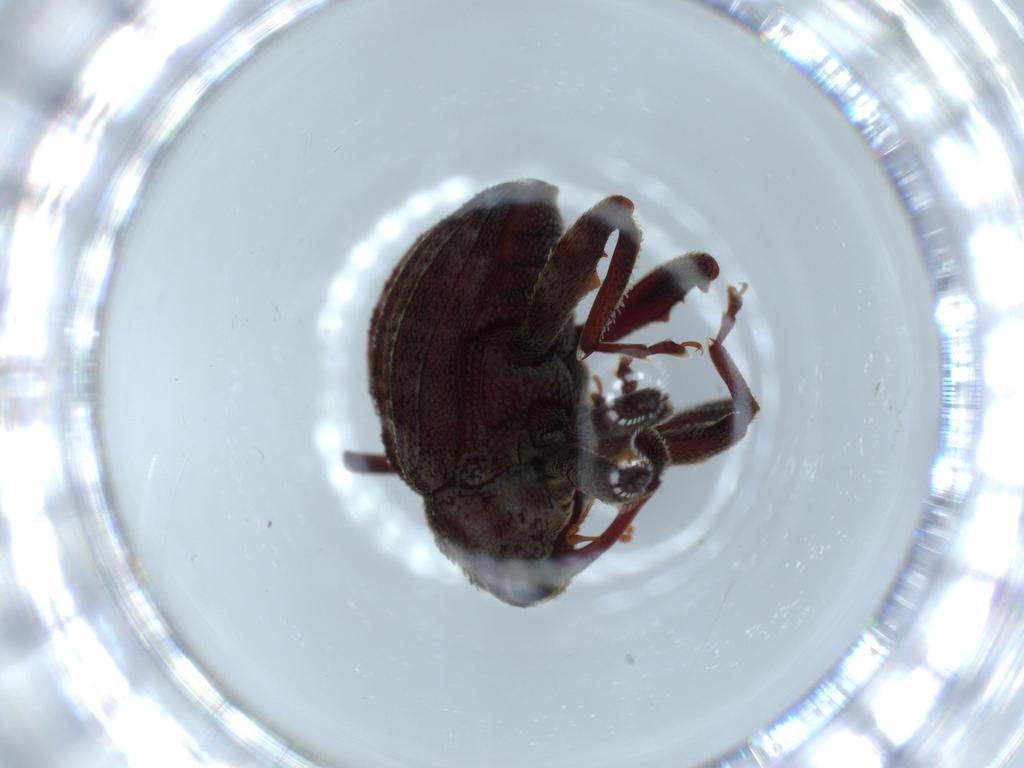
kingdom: Animalia
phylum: Arthropoda
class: Insecta
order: Coleoptera
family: Curculionidae
